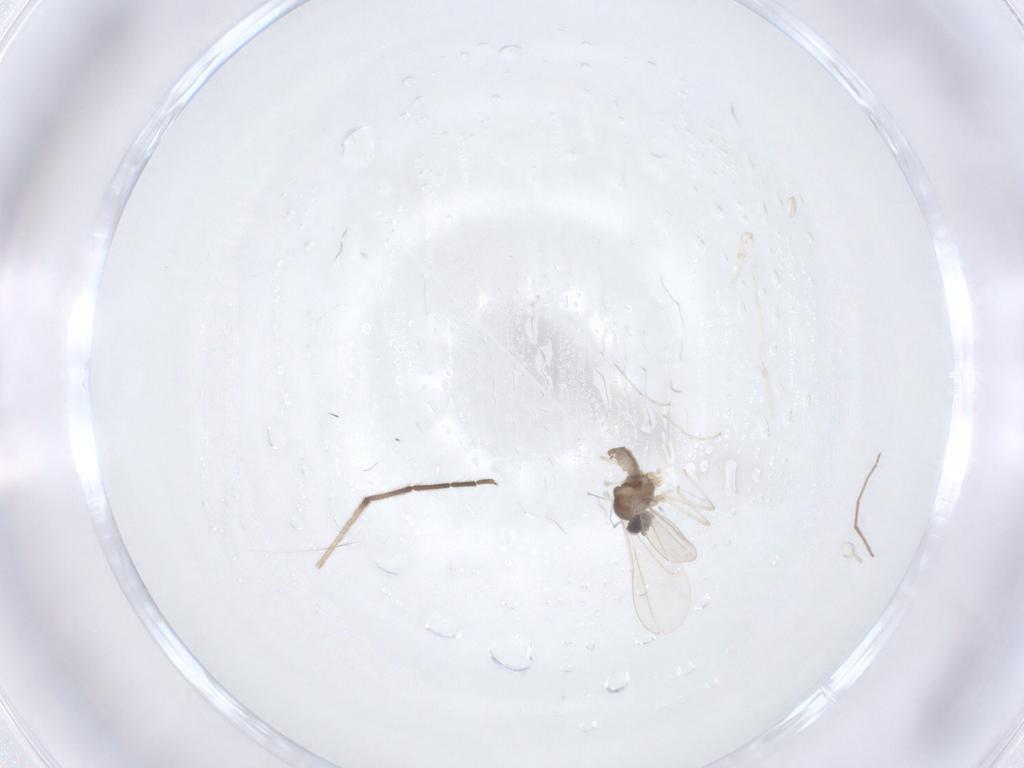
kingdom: Animalia
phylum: Arthropoda
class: Insecta
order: Diptera
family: Cecidomyiidae
